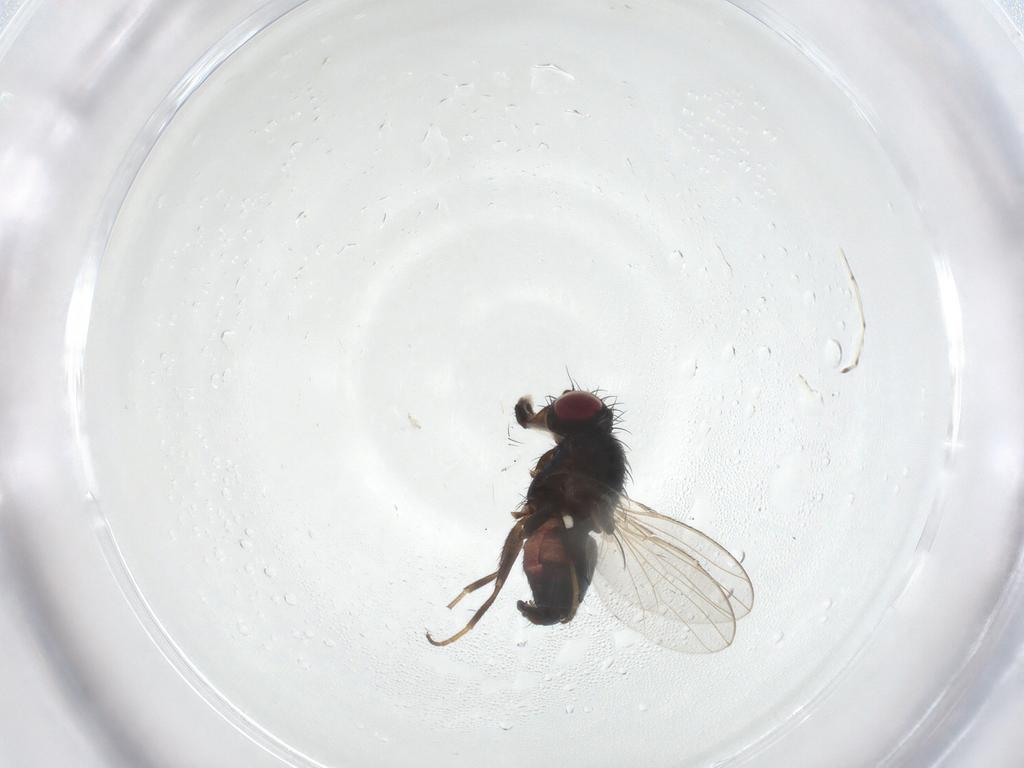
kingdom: Animalia
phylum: Arthropoda
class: Insecta
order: Diptera
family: Carnidae
